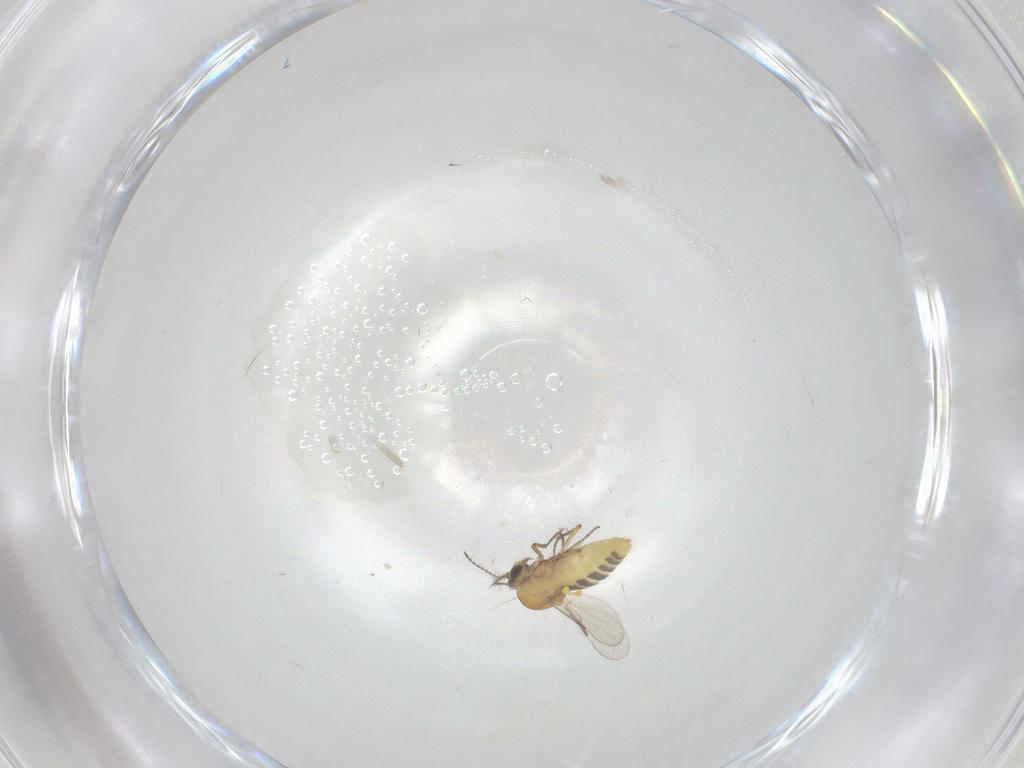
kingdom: Animalia
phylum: Arthropoda
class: Insecta
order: Diptera
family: Ceratopogonidae
